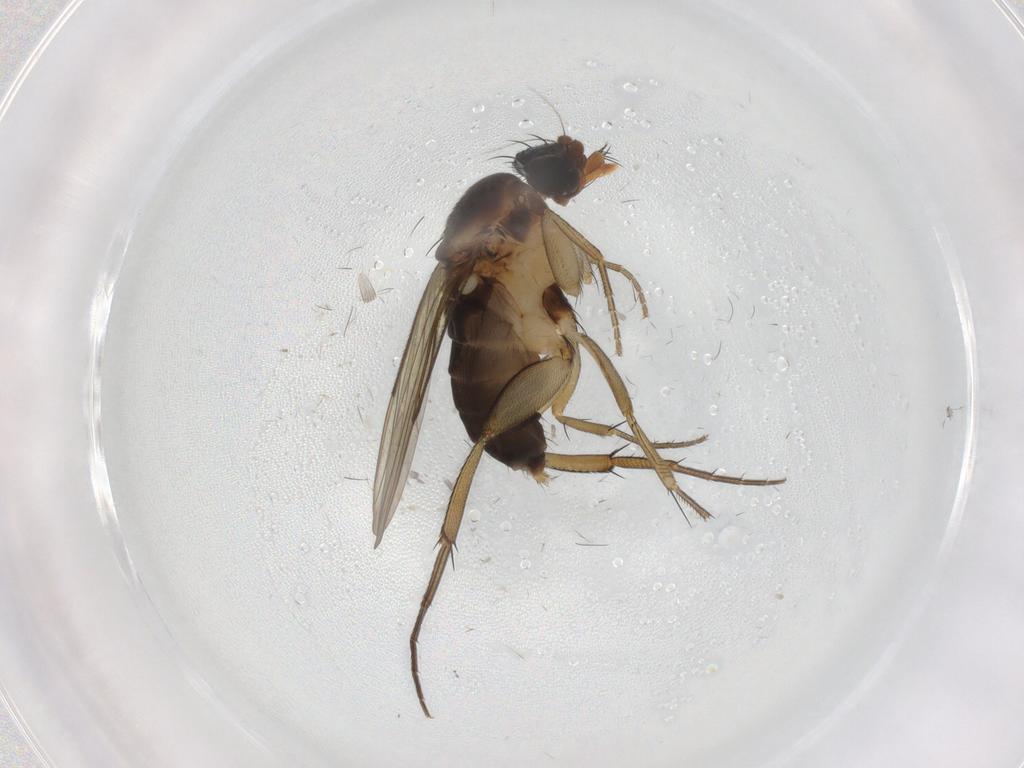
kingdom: Animalia
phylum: Arthropoda
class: Insecta
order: Diptera
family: Phoridae
